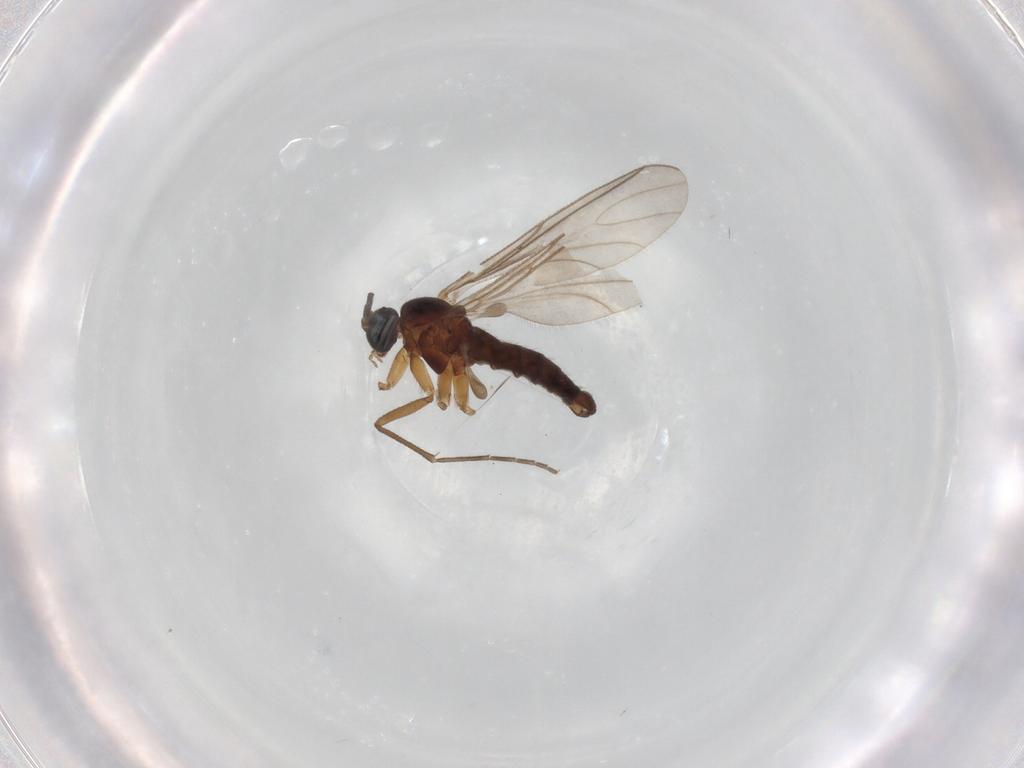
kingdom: Animalia
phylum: Arthropoda
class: Insecta
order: Diptera
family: Sciaridae
